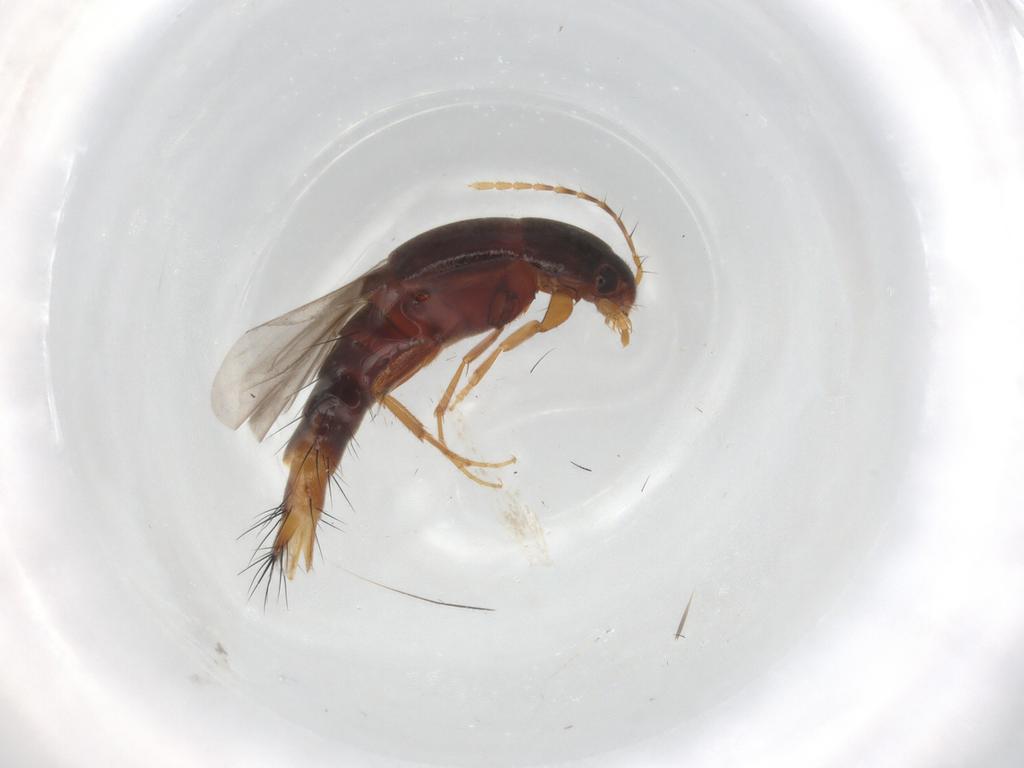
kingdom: Animalia
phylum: Arthropoda
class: Insecta
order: Coleoptera
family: Staphylinidae
